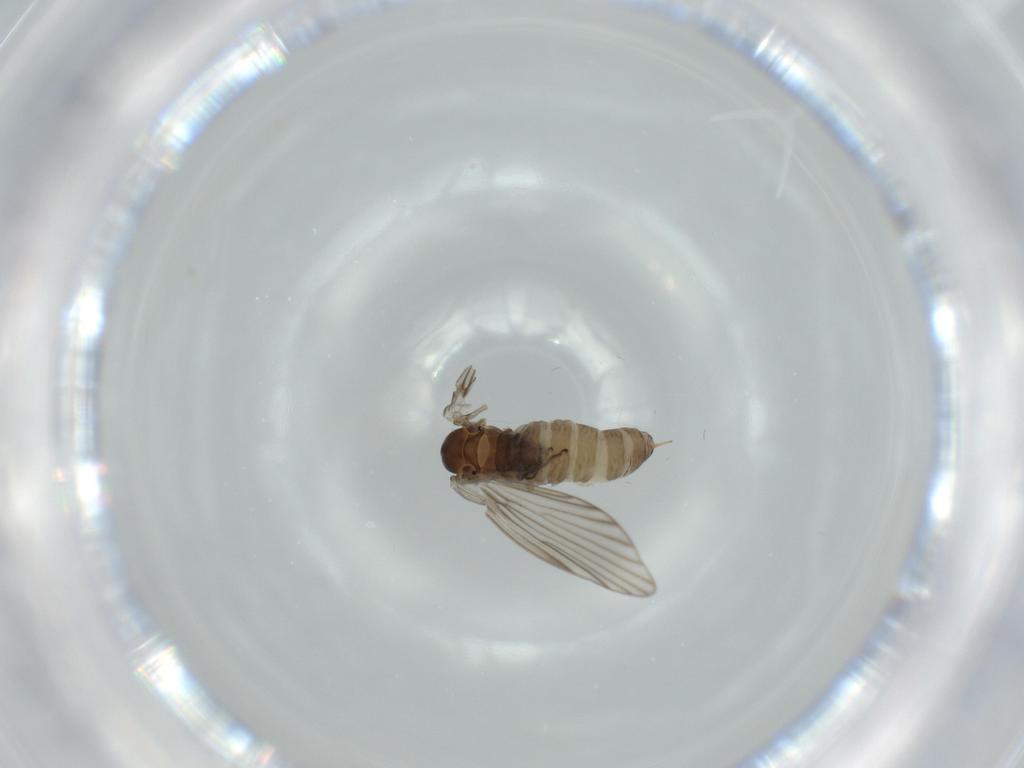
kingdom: Animalia
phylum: Arthropoda
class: Insecta
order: Diptera
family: Psychodidae
